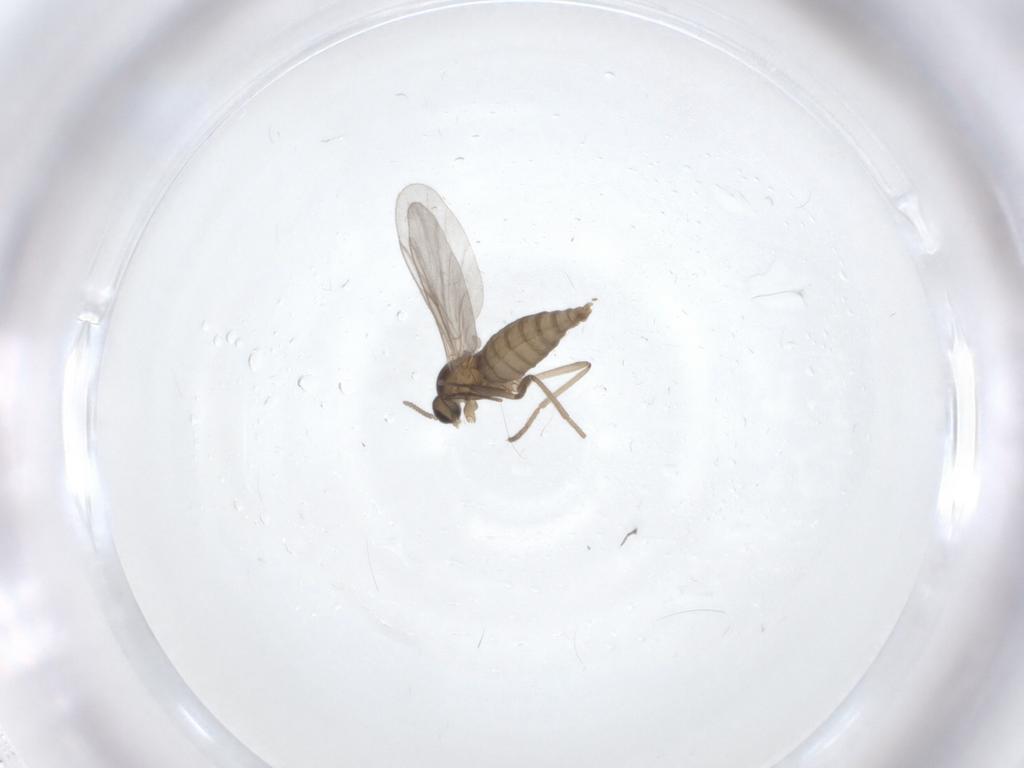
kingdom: Animalia
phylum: Arthropoda
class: Insecta
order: Diptera
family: Cecidomyiidae
